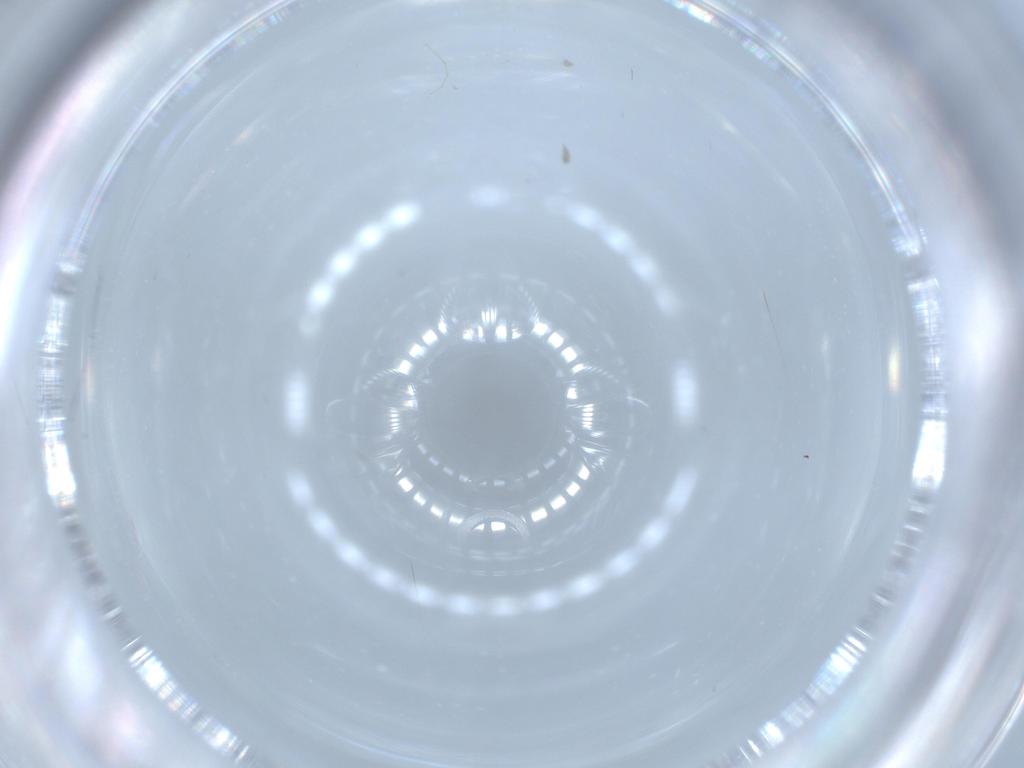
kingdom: Animalia
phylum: Arthropoda
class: Insecta
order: Diptera
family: Cecidomyiidae
